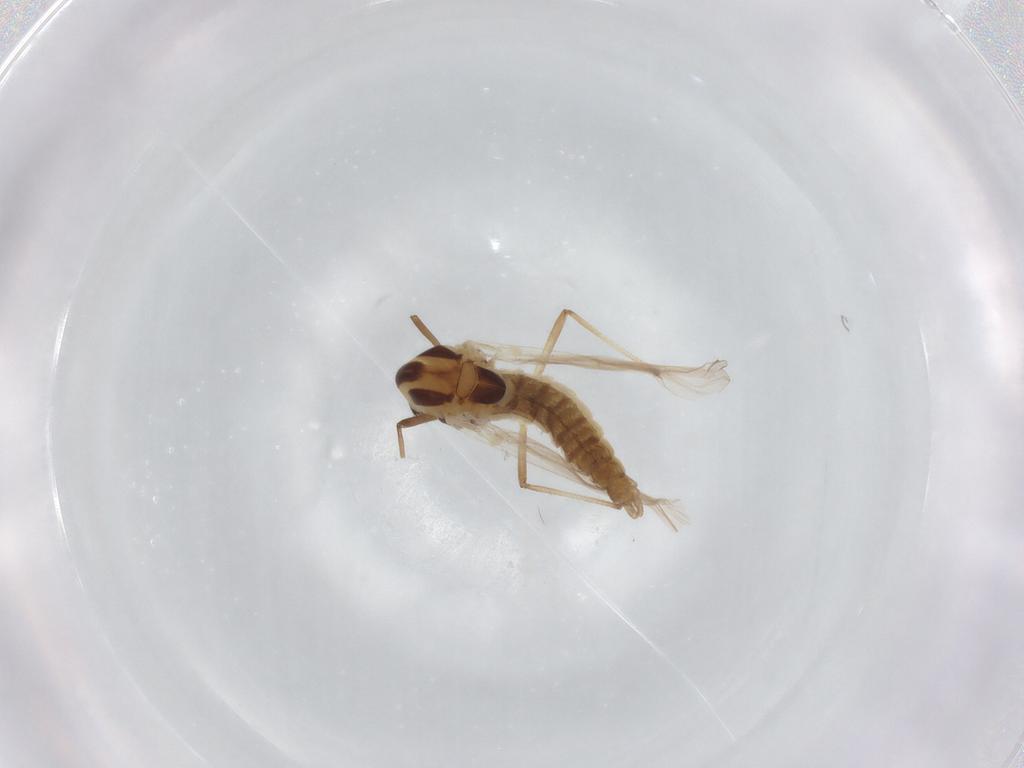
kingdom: Animalia
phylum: Arthropoda
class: Insecta
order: Diptera
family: Chironomidae
